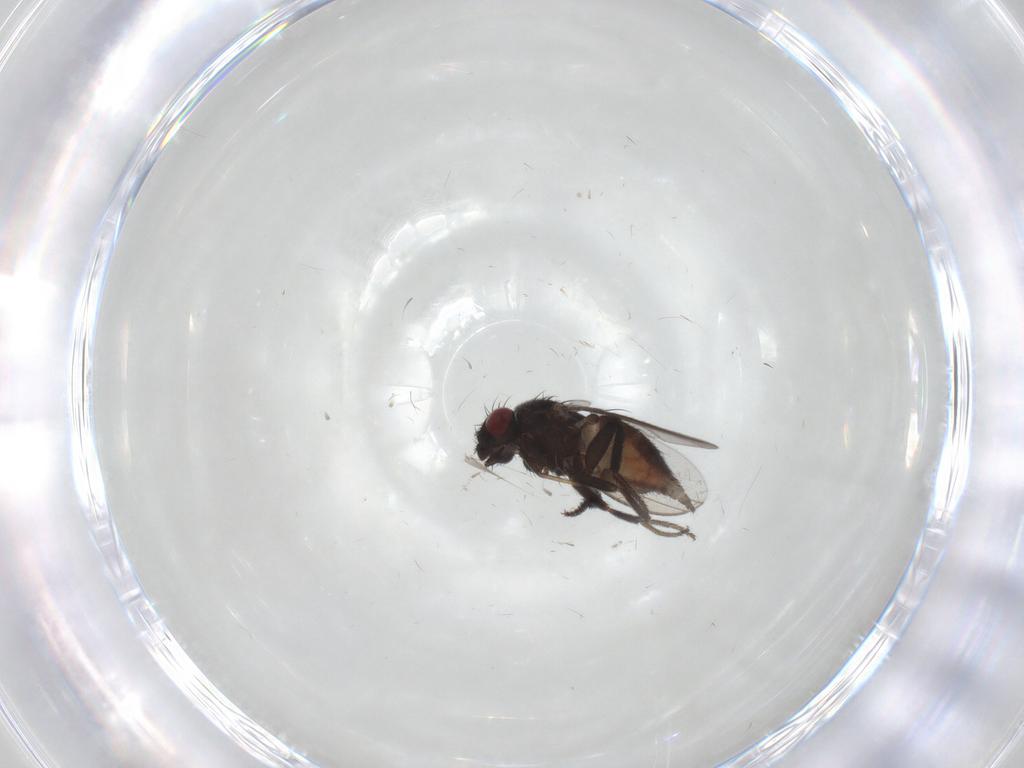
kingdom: Animalia
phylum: Arthropoda
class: Insecta
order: Diptera
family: Milichiidae
